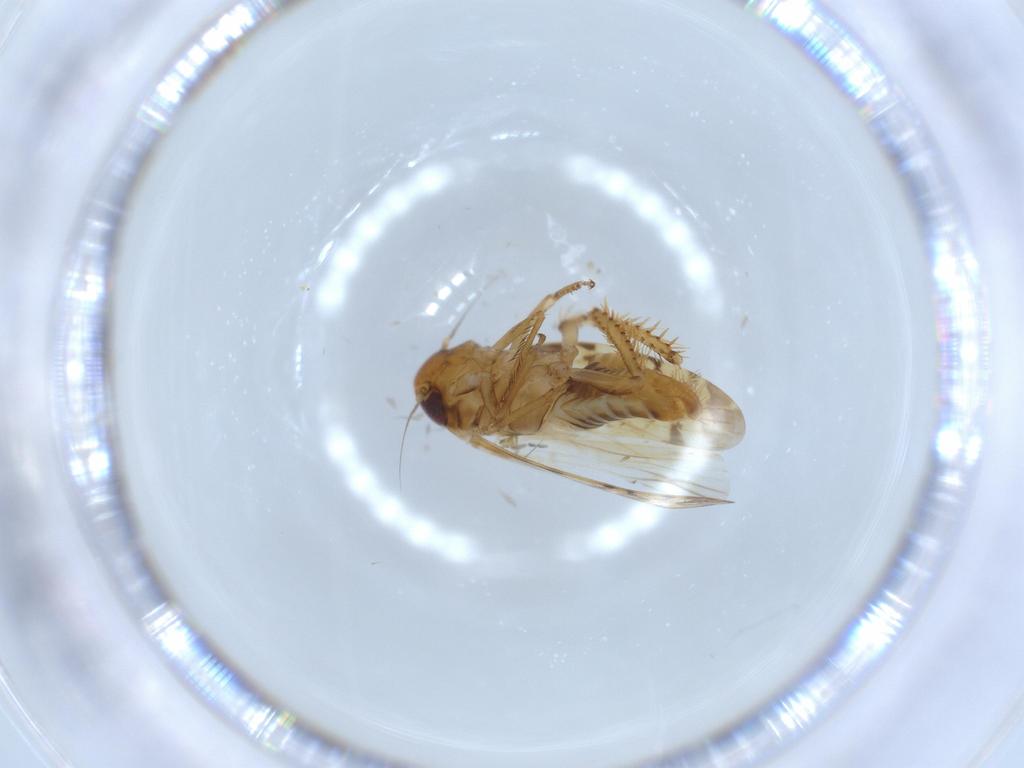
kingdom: Animalia
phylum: Arthropoda
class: Insecta
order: Hemiptera
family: Cicadellidae
